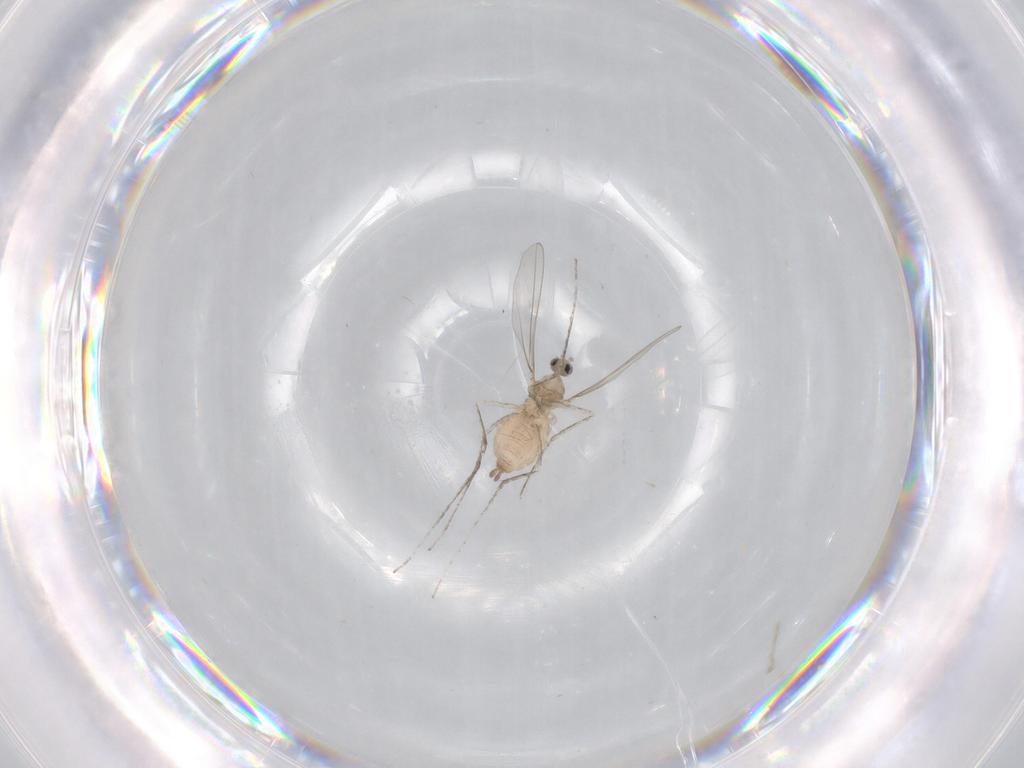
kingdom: Animalia
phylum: Arthropoda
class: Insecta
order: Diptera
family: Cecidomyiidae
